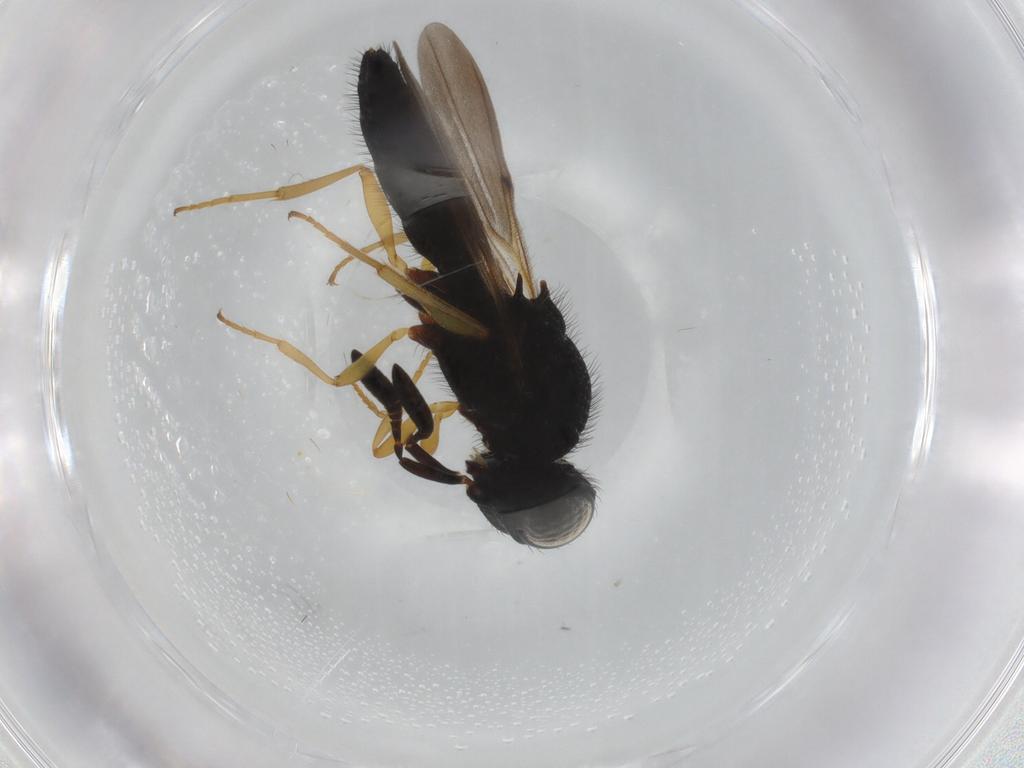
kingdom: Animalia
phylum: Arthropoda
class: Insecta
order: Hymenoptera
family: Scelionidae
